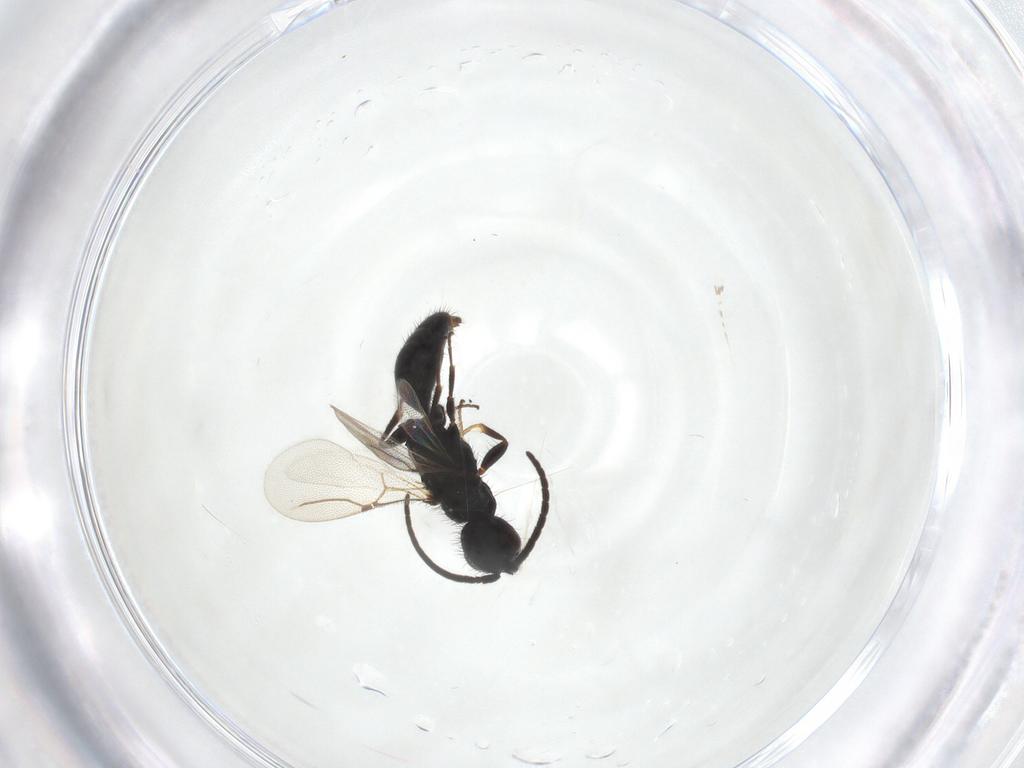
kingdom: Animalia
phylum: Arthropoda
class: Insecta
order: Hymenoptera
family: Bethylidae
